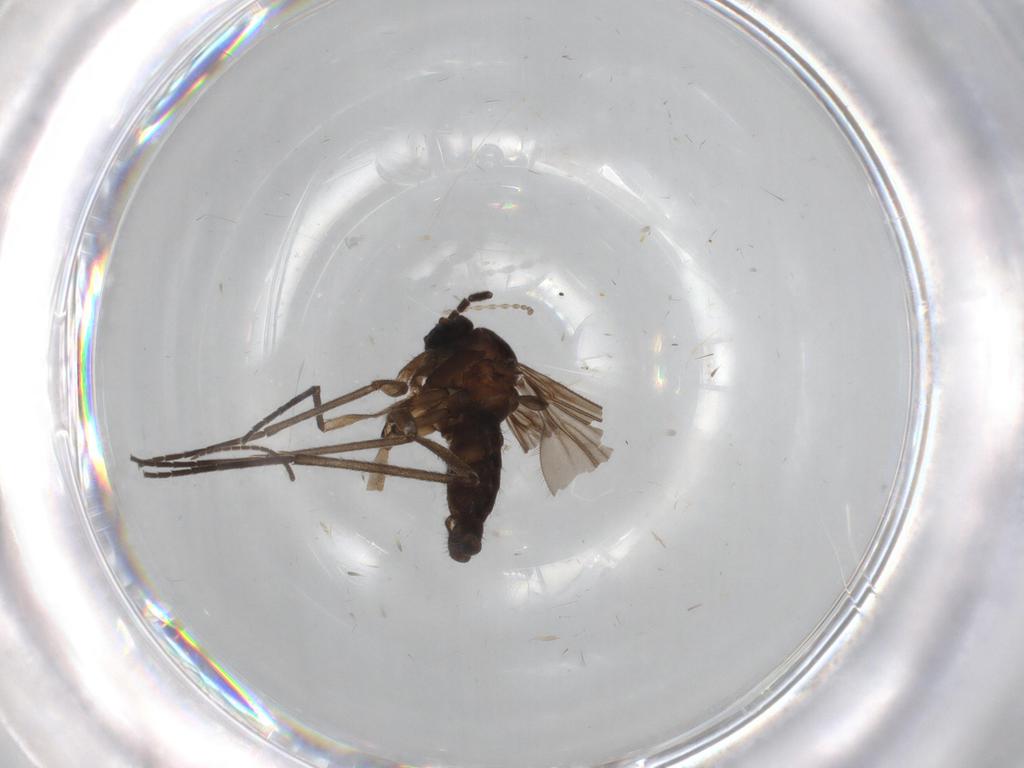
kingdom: Animalia
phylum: Arthropoda
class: Insecta
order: Diptera
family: Sciaridae
